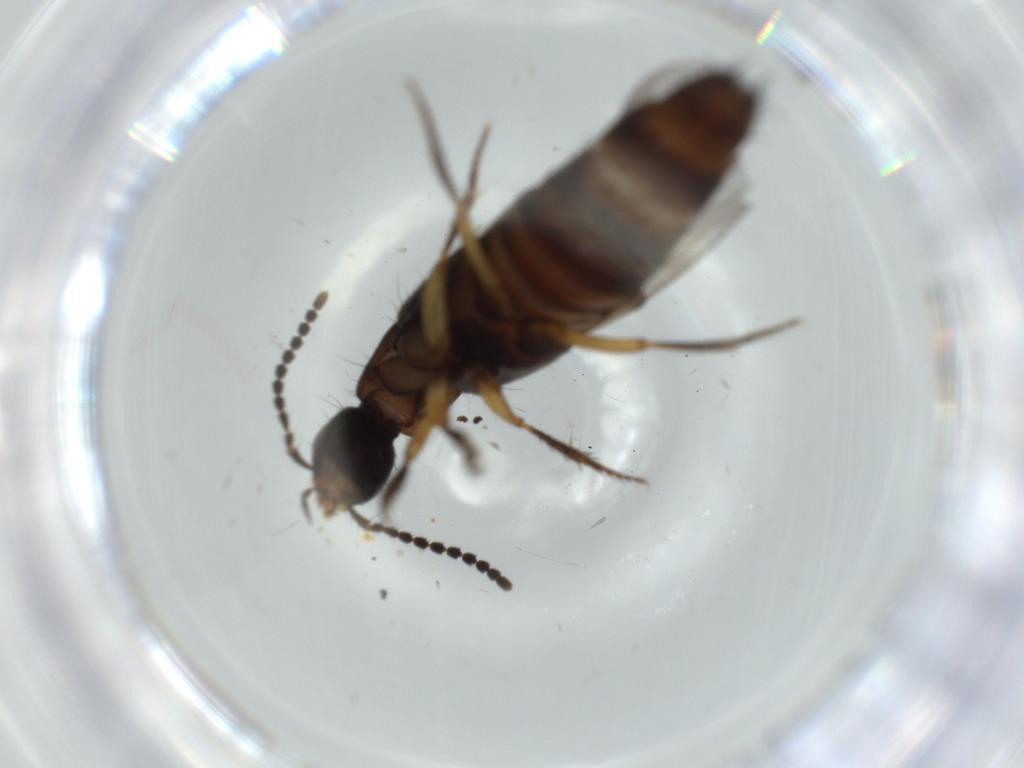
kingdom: Animalia
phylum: Arthropoda
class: Insecta
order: Coleoptera
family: Staphylinidae
